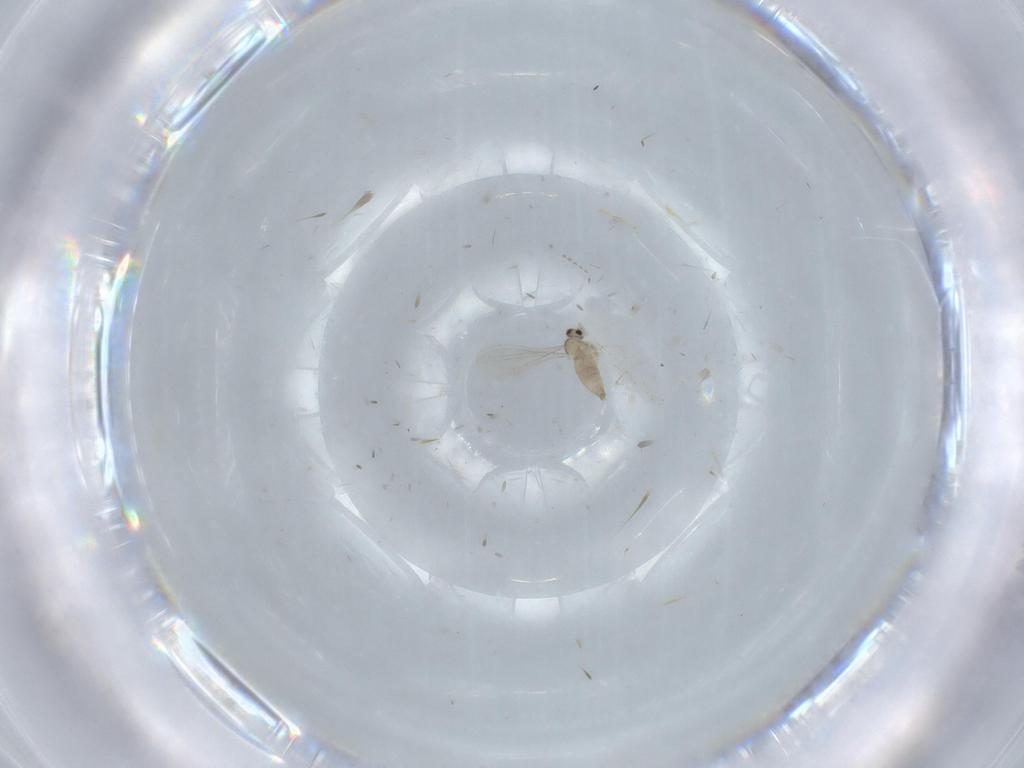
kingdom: Animalia
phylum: Arthropoda
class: Insecta
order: Diptera
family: Cecidomyiidae
